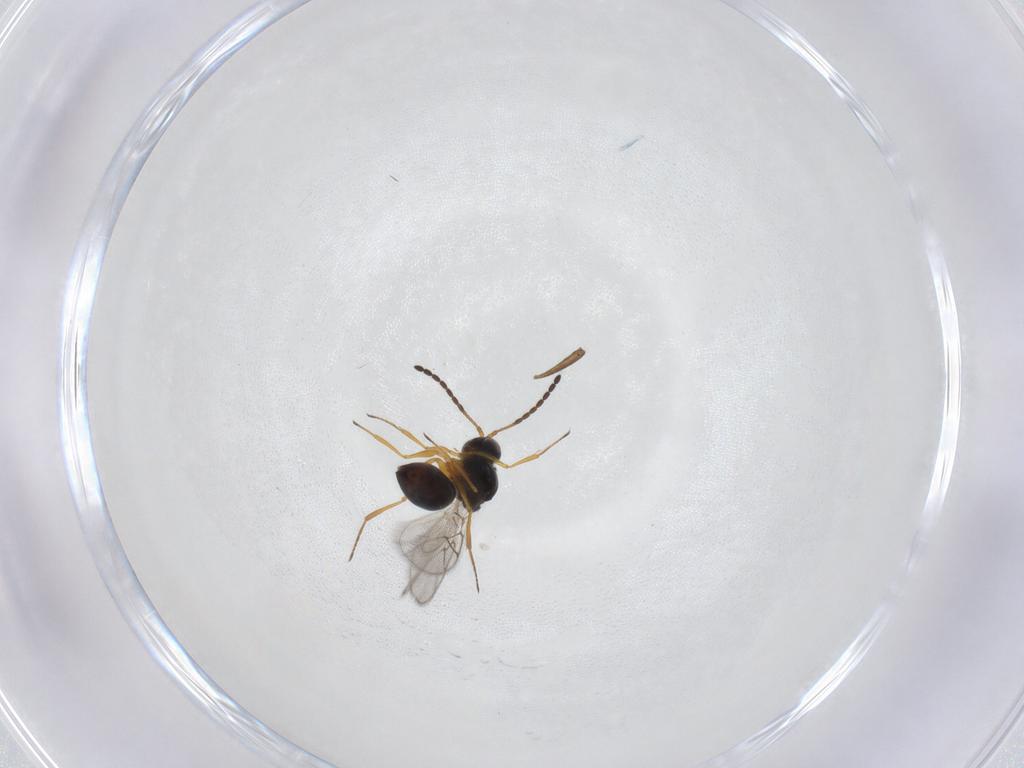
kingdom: Animalia
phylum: Arthropoda
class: Insecta
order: Hymenoptera
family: Figitidae
